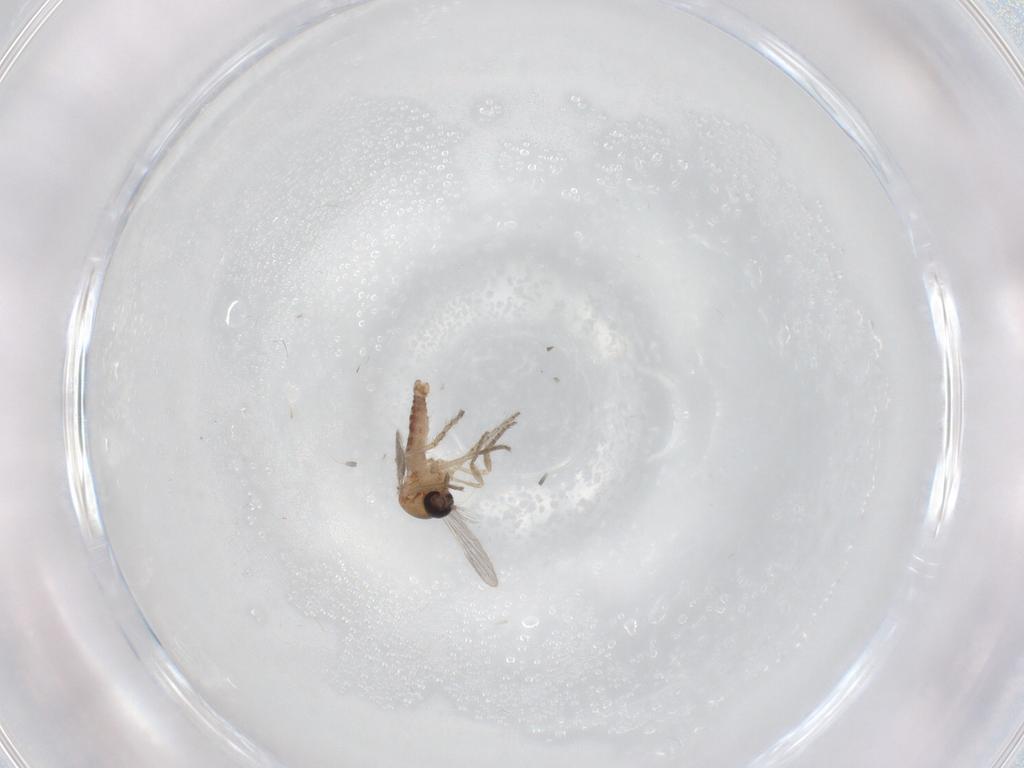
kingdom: Animalia
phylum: Arthropoda
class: Insecta
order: Diptera
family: Ceratopogonidae
